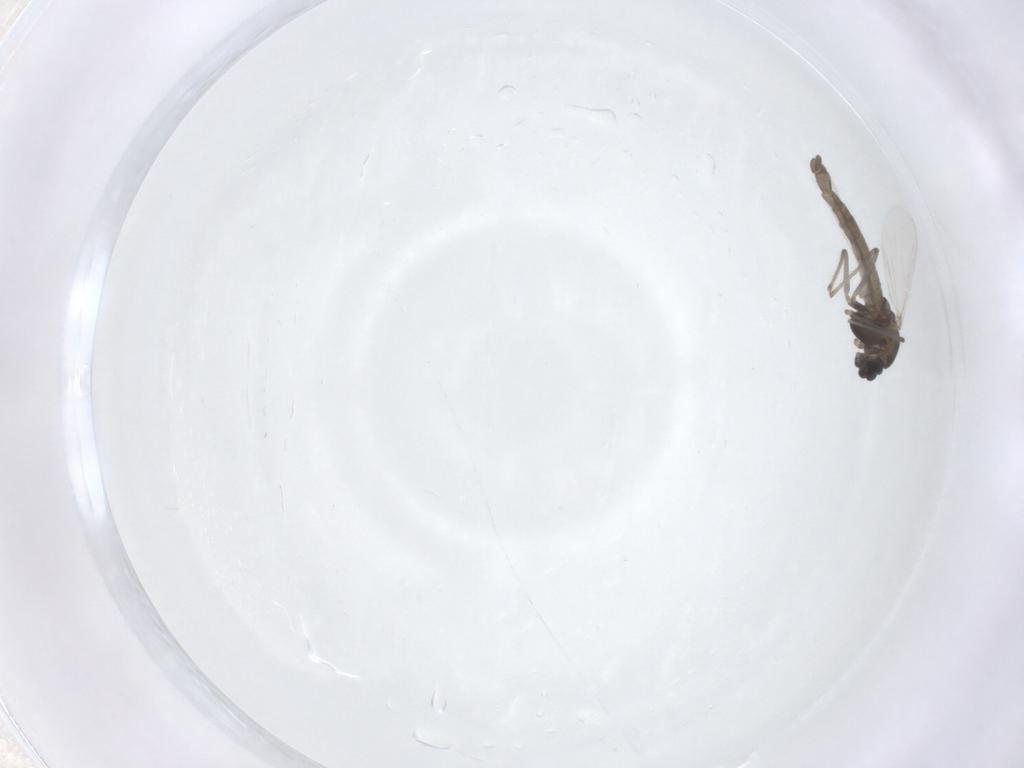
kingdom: Animalia
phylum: Arthropoda
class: Insecta
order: Diptera
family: Chironomidae
